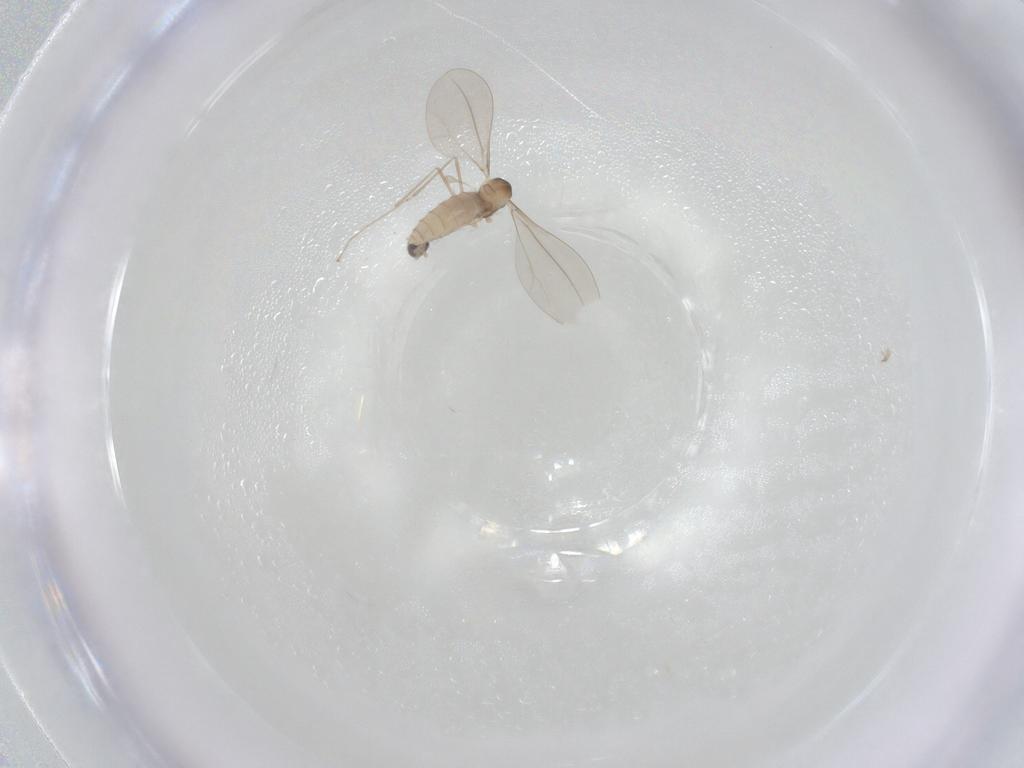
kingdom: Animalia
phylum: Arthropoda
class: Insecta
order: Diptera
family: Cecidomyiidae
